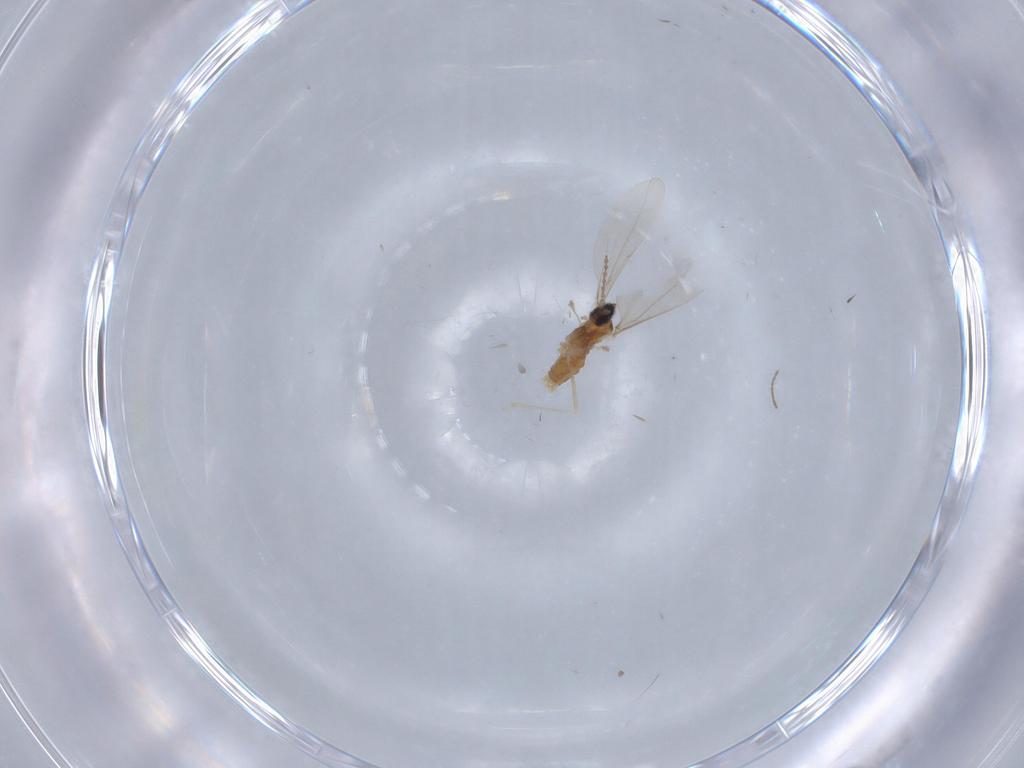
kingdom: Animalia
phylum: Arthropoda
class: Insecta
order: Diptera
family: Cecidomyiidae
